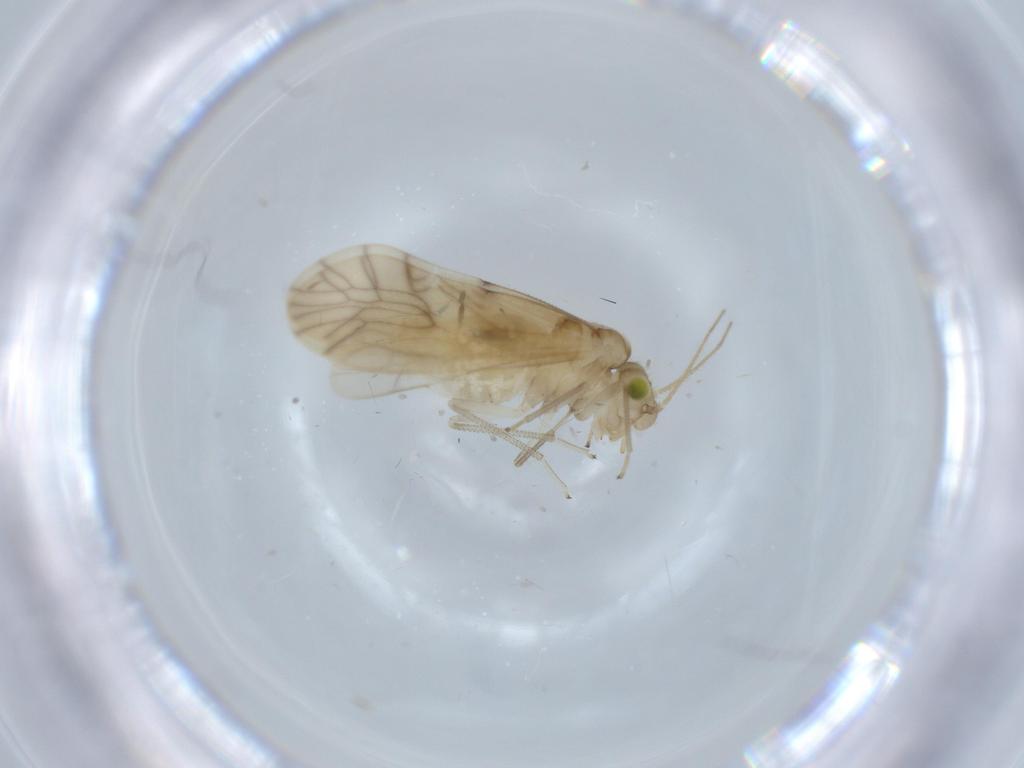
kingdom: Animalia
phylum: Arthropoda
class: Insecta
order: Psocodea
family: Caeciliusidae
